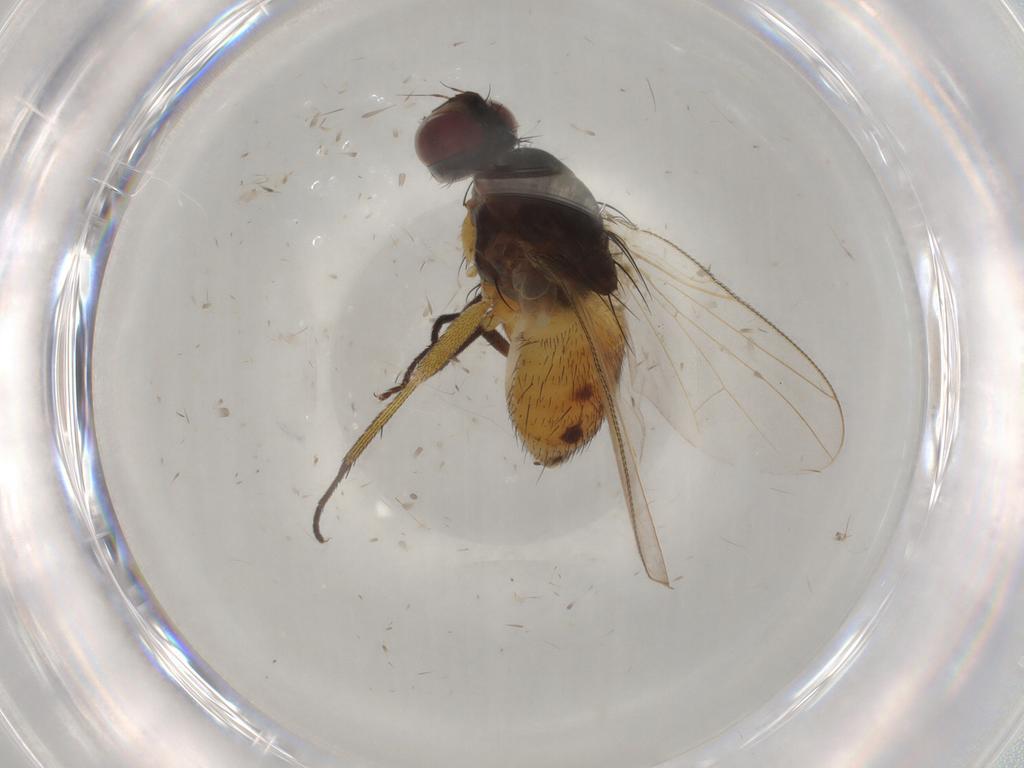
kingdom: Animalia
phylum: Arthropoda
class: Insecta
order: Diptera
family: Muscidae
